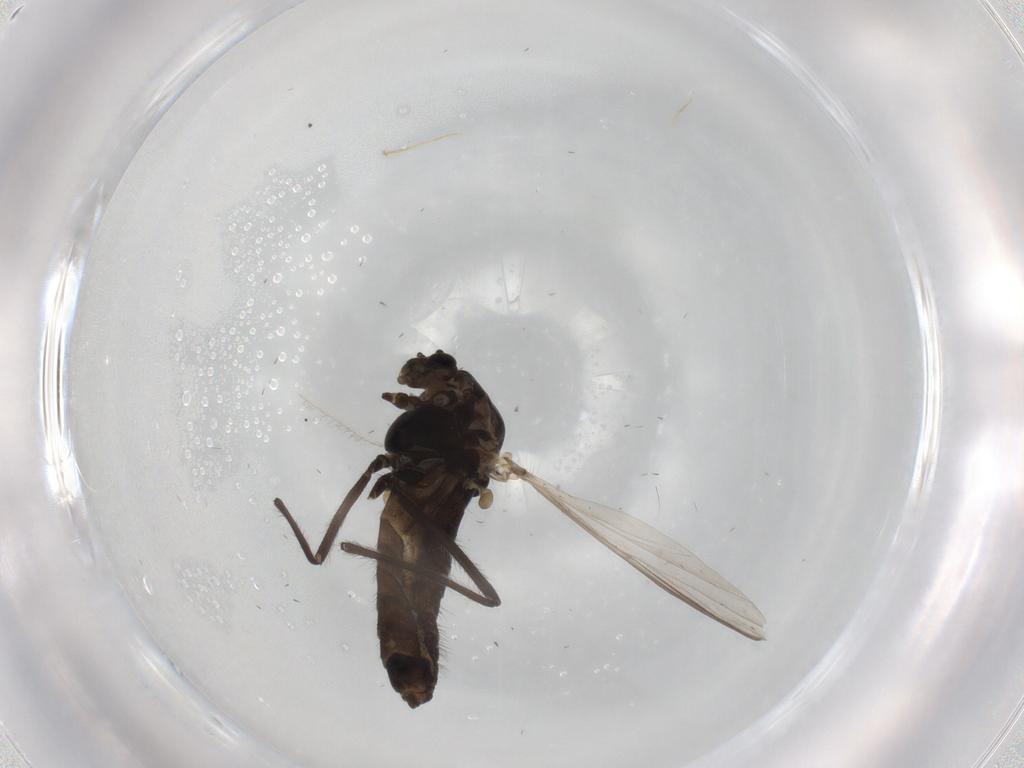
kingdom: Animalia
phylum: Arthropoda
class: Insecta
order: Diptera
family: Chironomidae
